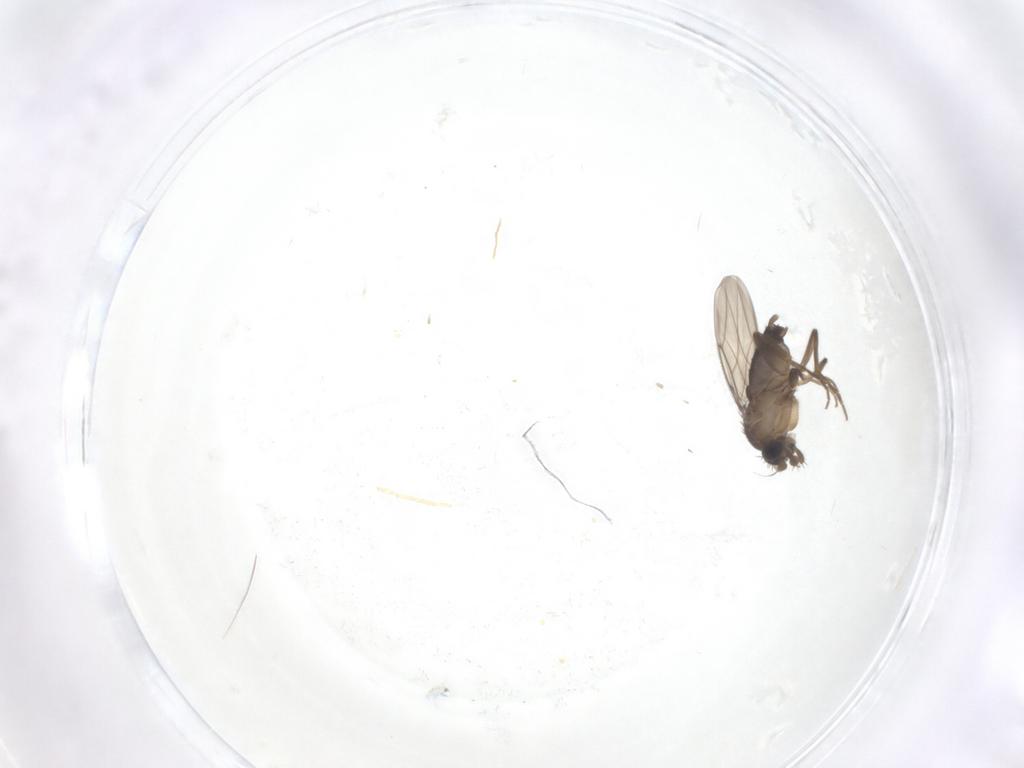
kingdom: Animalia
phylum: Arthropoda
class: Insecta
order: Diptera
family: Phoridae
